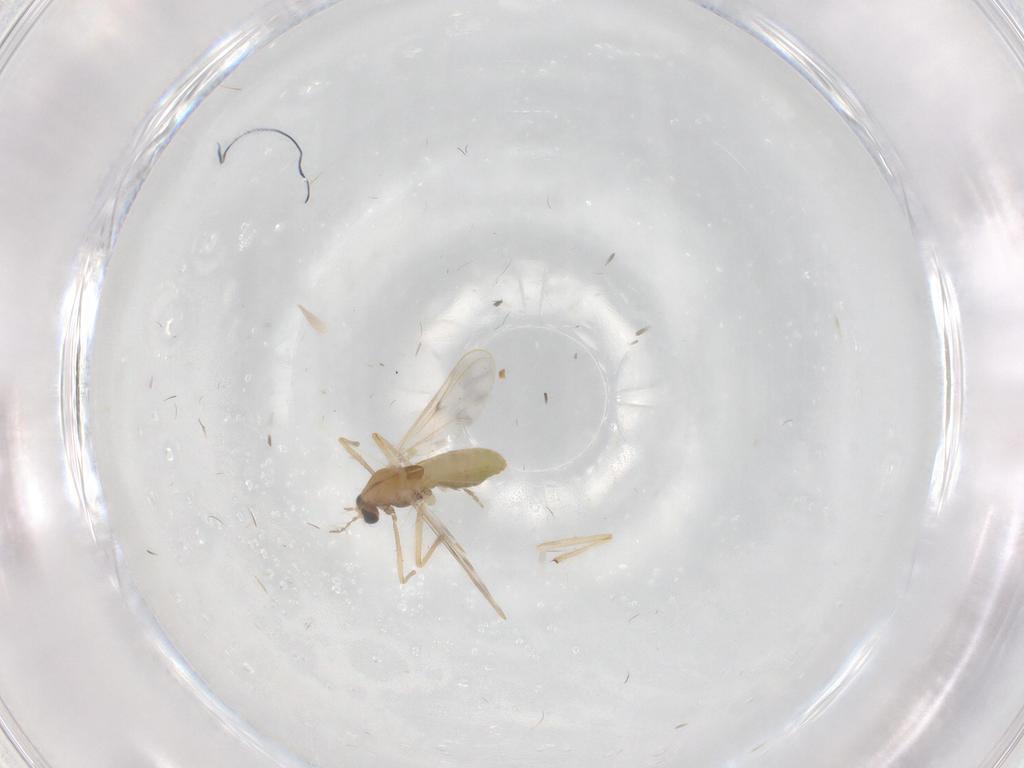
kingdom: Animalia
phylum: Arthropoda
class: Insecta
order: Diptera
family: Chironomidae
